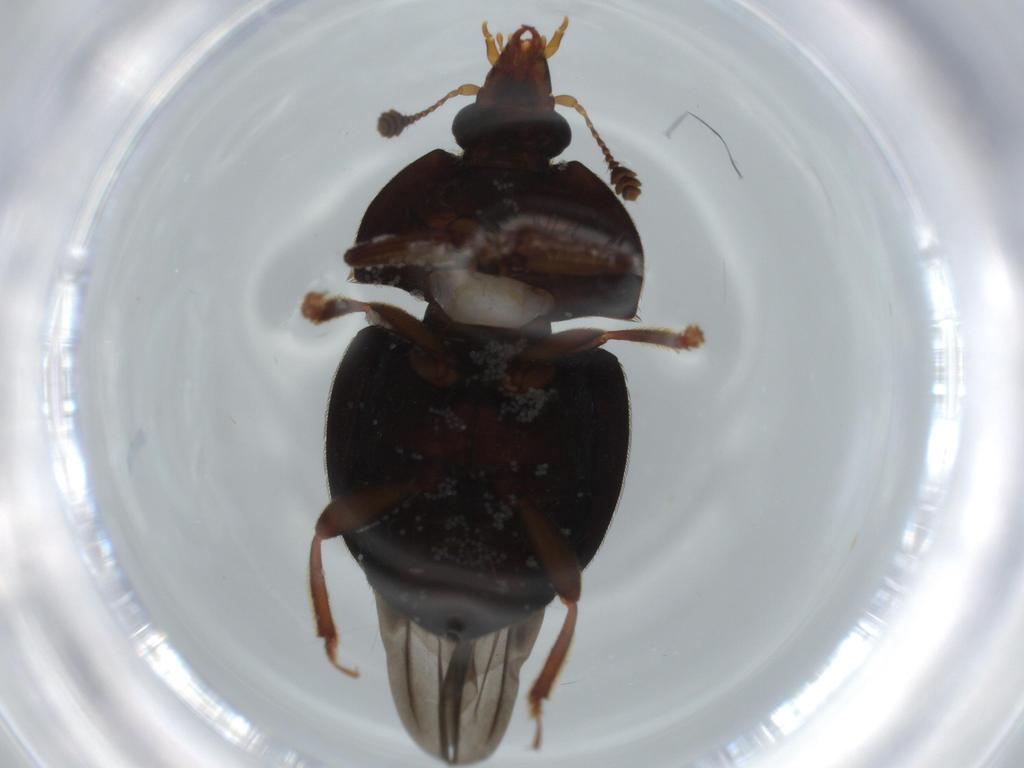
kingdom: Animalia
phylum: Arthropoda
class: Insecta
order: Coleoptera
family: Bostrichidae
